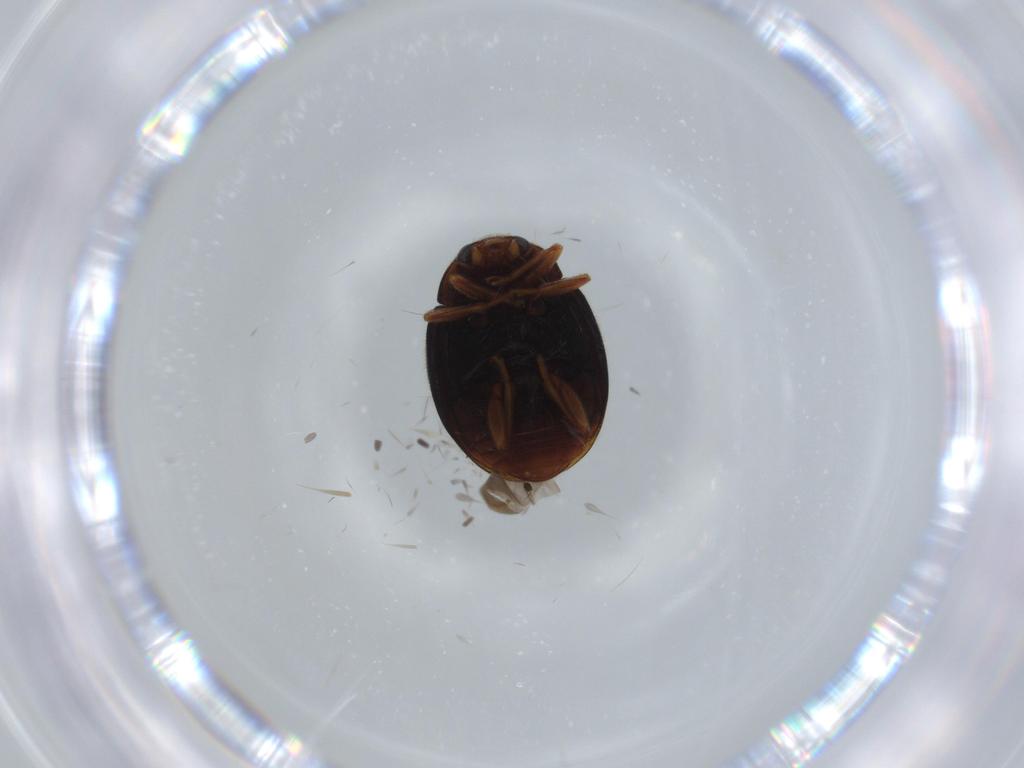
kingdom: Animalia
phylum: Arthropoda
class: Insecta
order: Coleoptera
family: Coccinellidae
